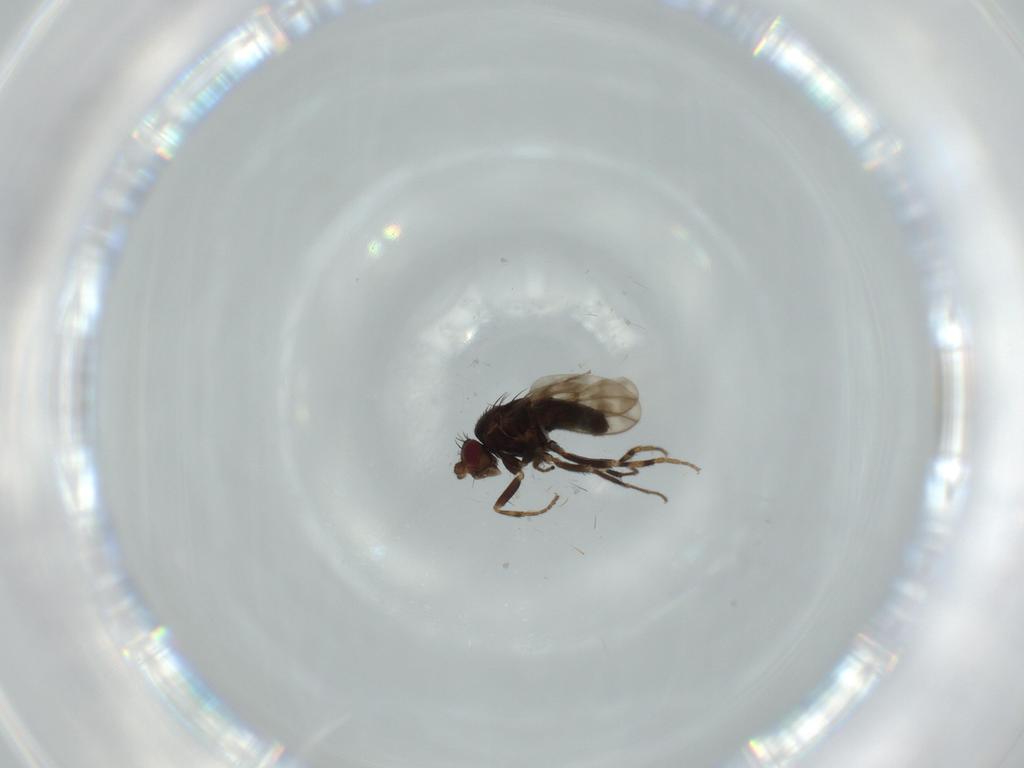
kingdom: Animalia
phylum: Arthropoda
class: Insecta
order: Diptera
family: Sphaeroceridae
